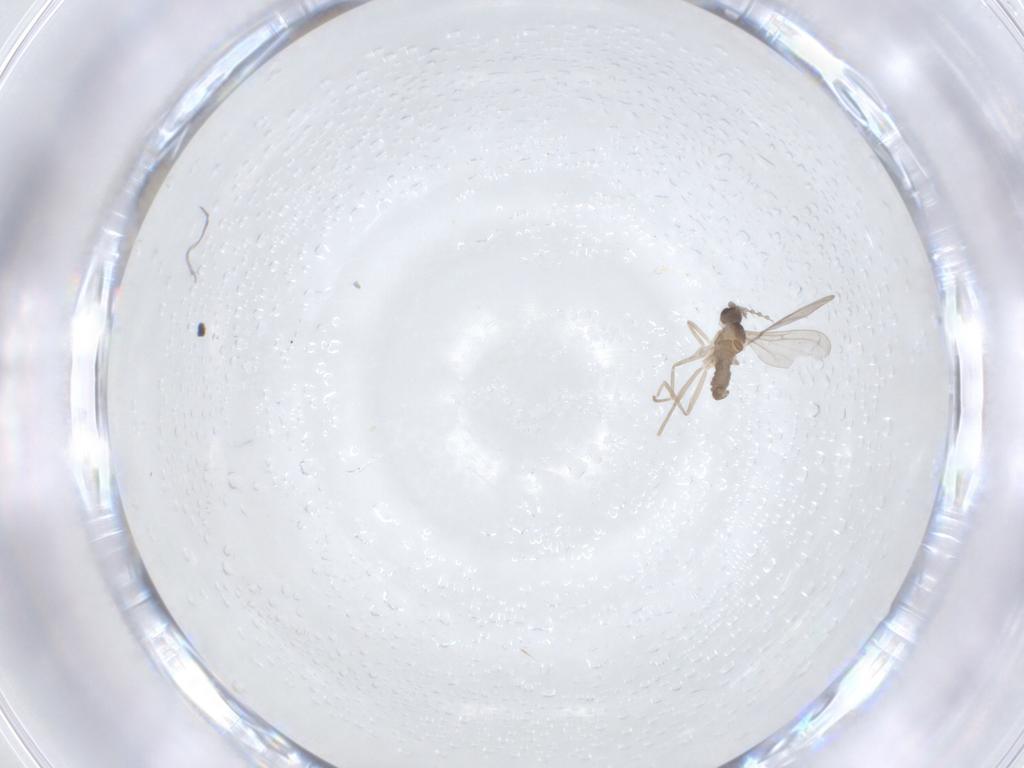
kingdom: Animalia
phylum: Arthropoda
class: Insecta
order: Diptera
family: Cecidomyiidae
